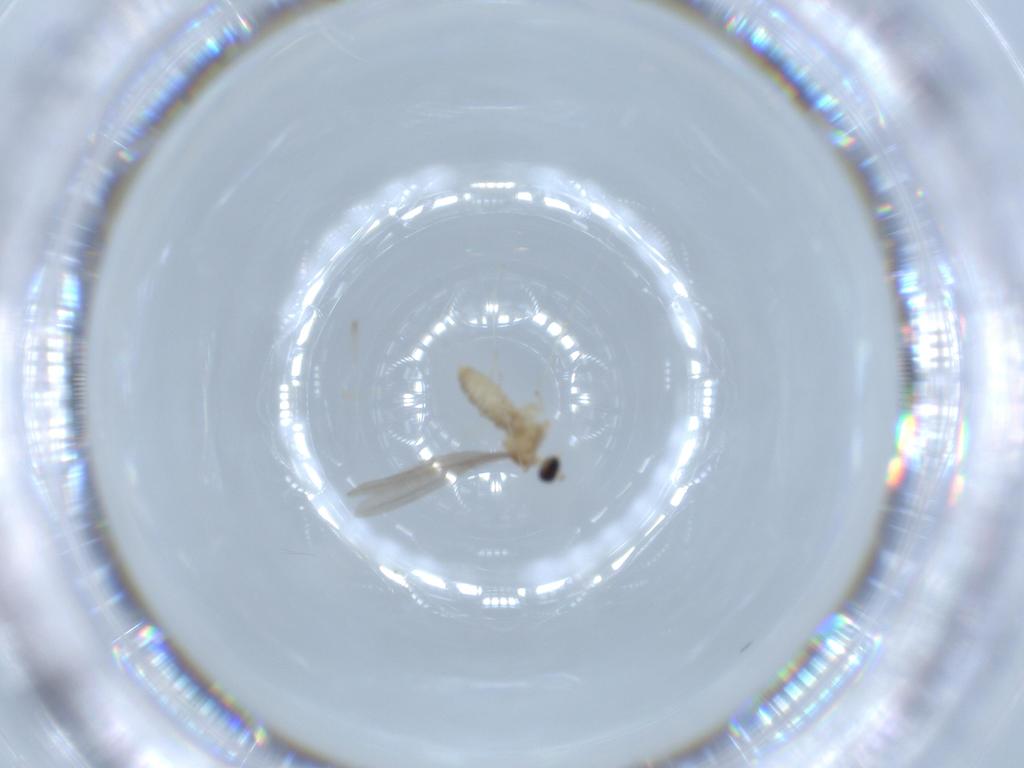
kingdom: Animalia
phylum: Arthropoda
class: Insecta
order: Diptera
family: Cecidomyiidae
